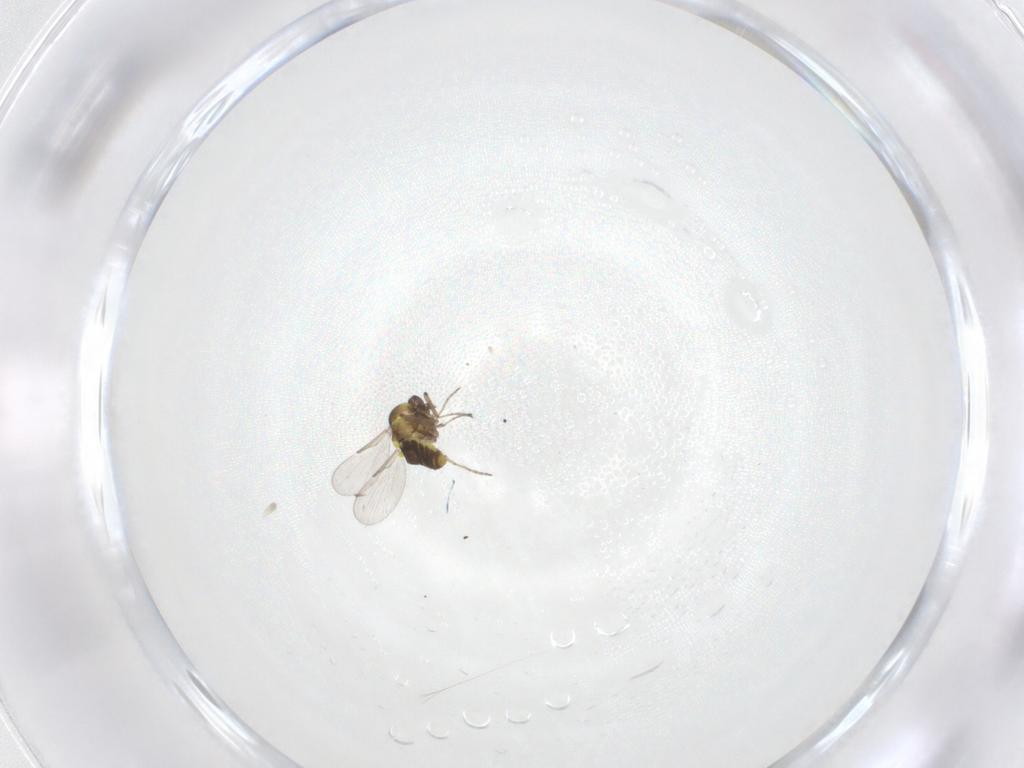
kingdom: Animalia
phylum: Arthropoda
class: Insecta
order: Diptera
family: Ceratopogonidae
